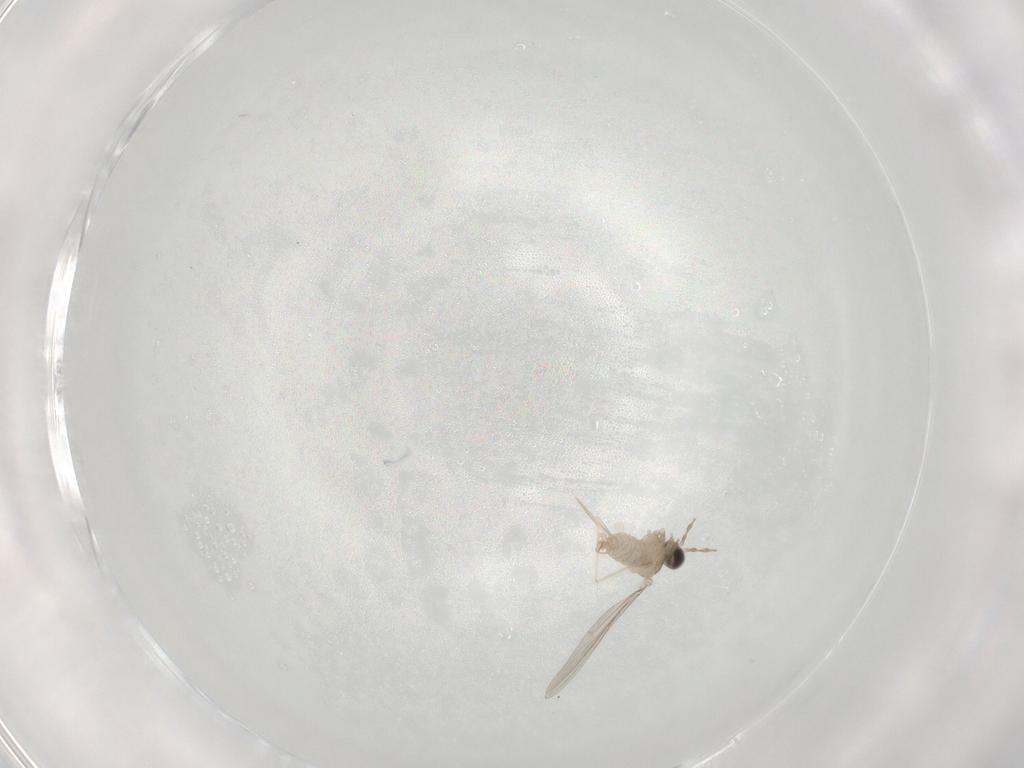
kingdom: Animalia
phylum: Arthropoda
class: Insecta
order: Diptera
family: Cecidomyiidae
